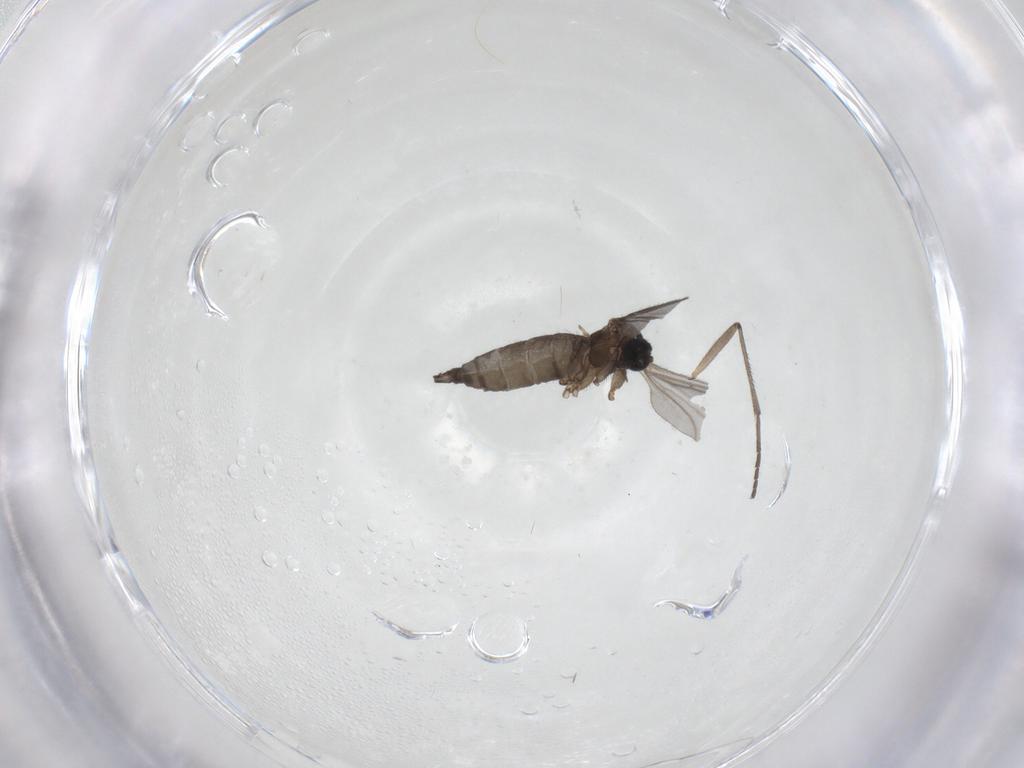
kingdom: Animalia
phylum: Arthropoda
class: Insecta
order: Diptera
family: Sciaridae
